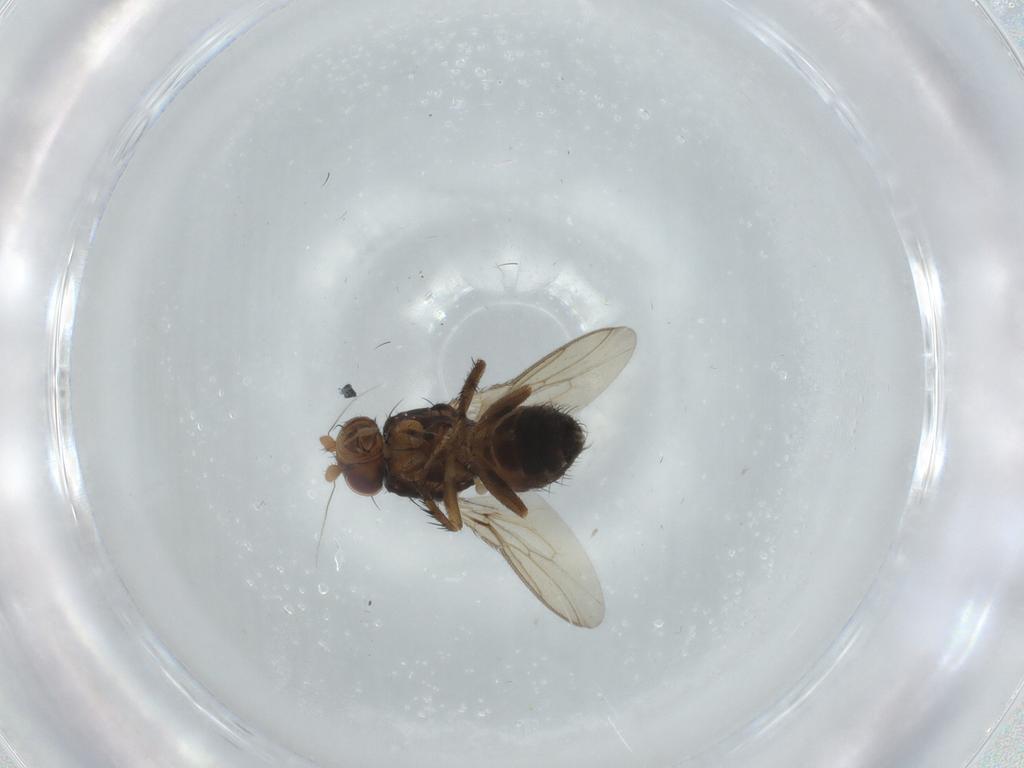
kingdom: Animalia
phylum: Arthropoda
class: Insecta
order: Diptera
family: Sphaeroceridae
